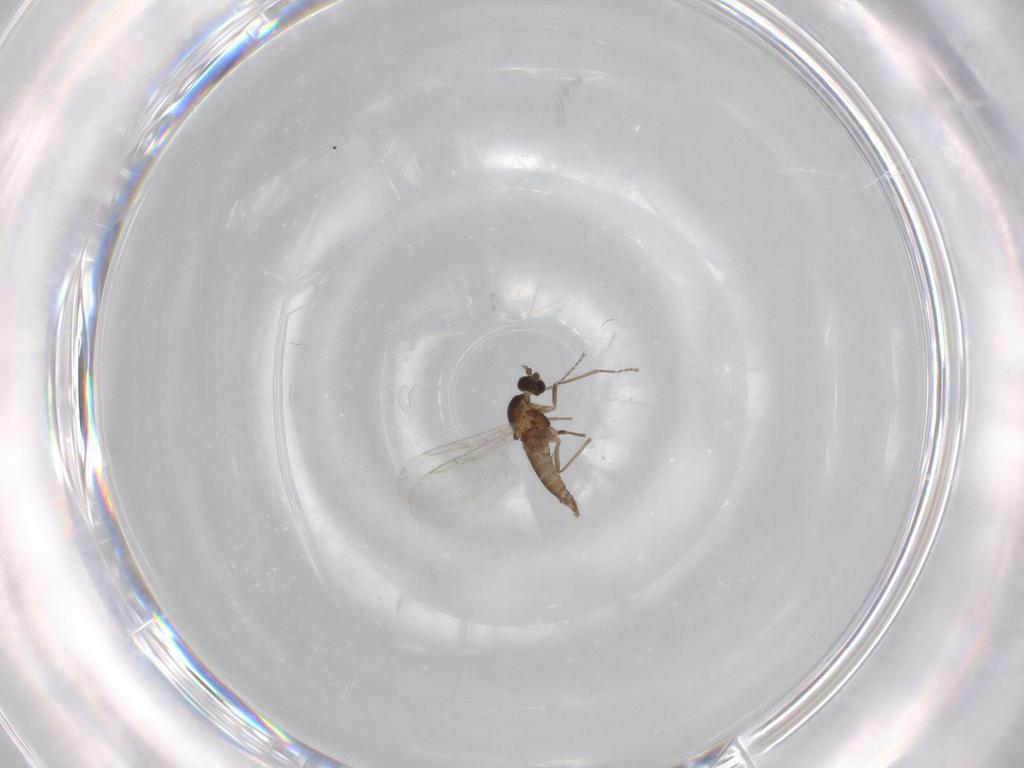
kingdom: Animalia
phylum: Arthropoda
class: Insecta
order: Diptera
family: Cecidomyiidae
